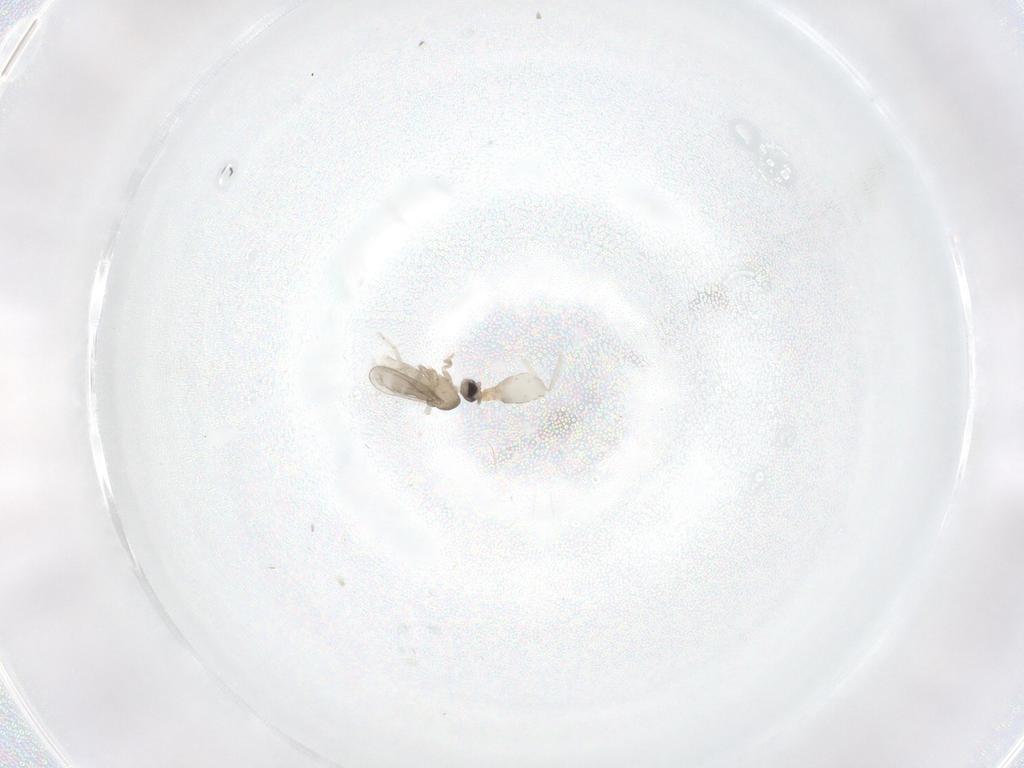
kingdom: Animalia
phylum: Arthropoda
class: Insecta
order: Diptera
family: Cecidomyiidae
